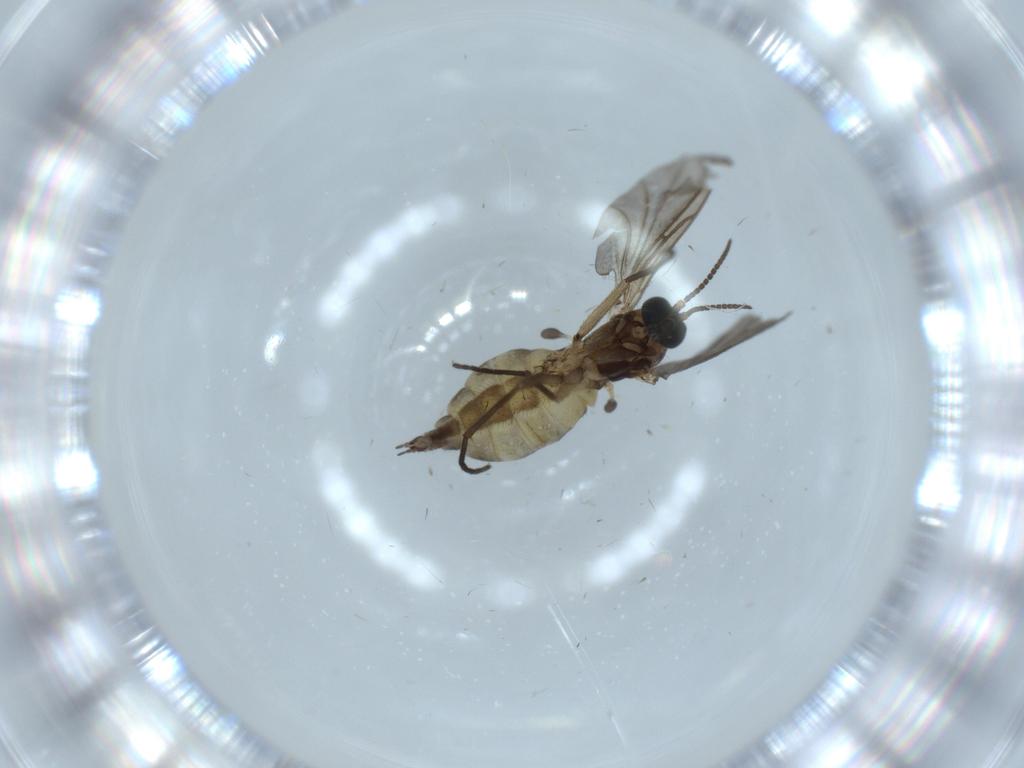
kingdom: Animalia
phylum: Arthropoda
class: Insecta
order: Diptera
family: Sciaridae
